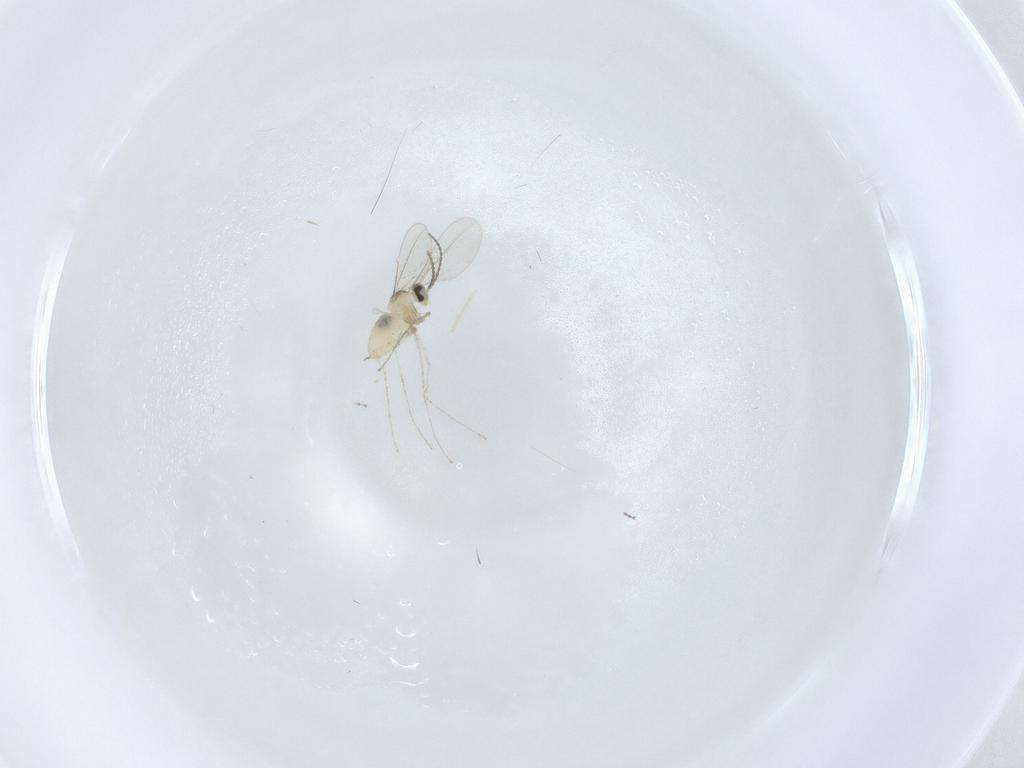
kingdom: Animalia
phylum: Arthropoda
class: Insecta
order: Diptera
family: Cecidomyiidae
